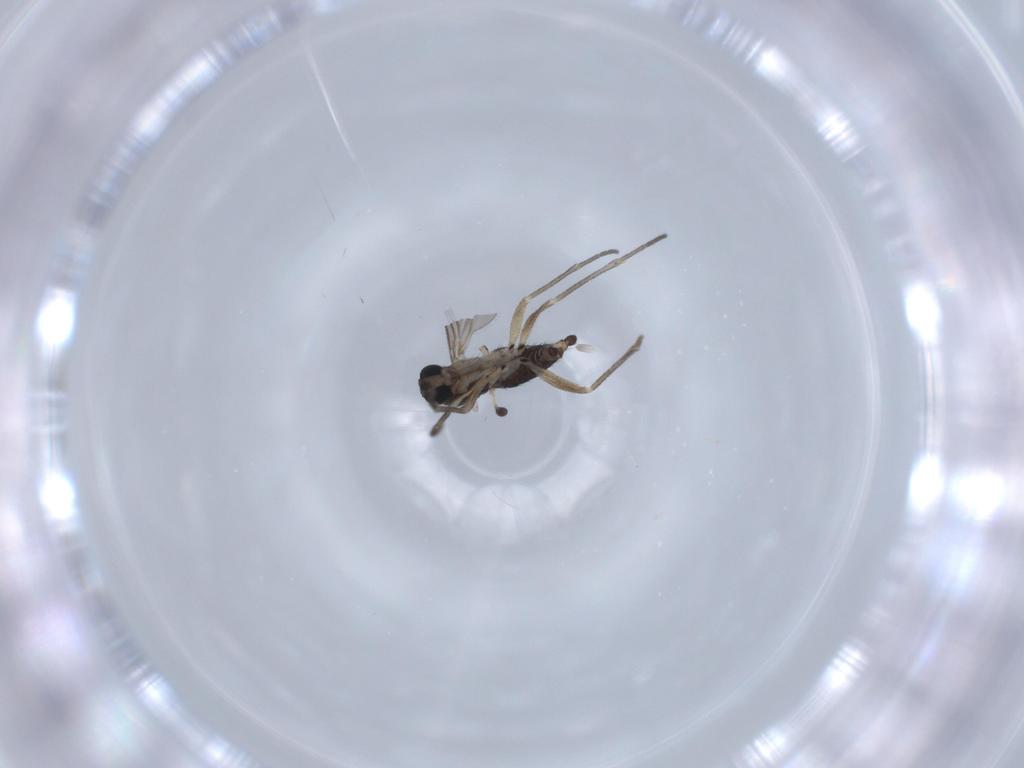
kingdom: Animalia
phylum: Arthropoda
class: Insecta
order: Diptera
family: Sciaridae
